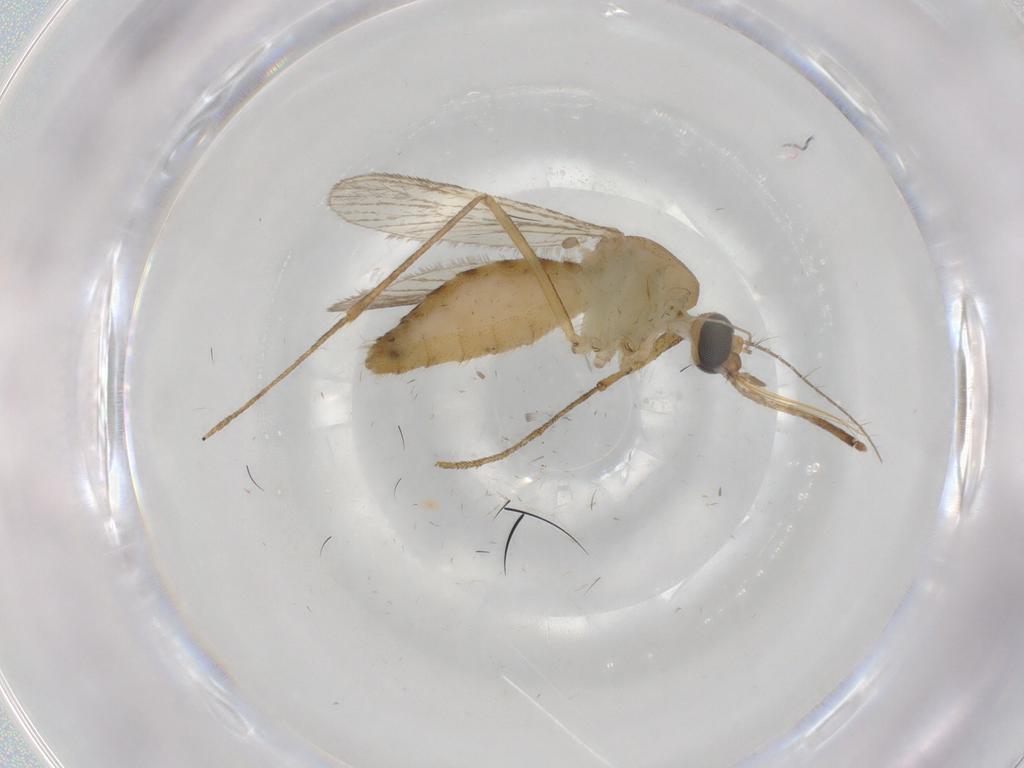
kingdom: Animalia
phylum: Arthropoda
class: Insecta
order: Diptera
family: Culicidae
